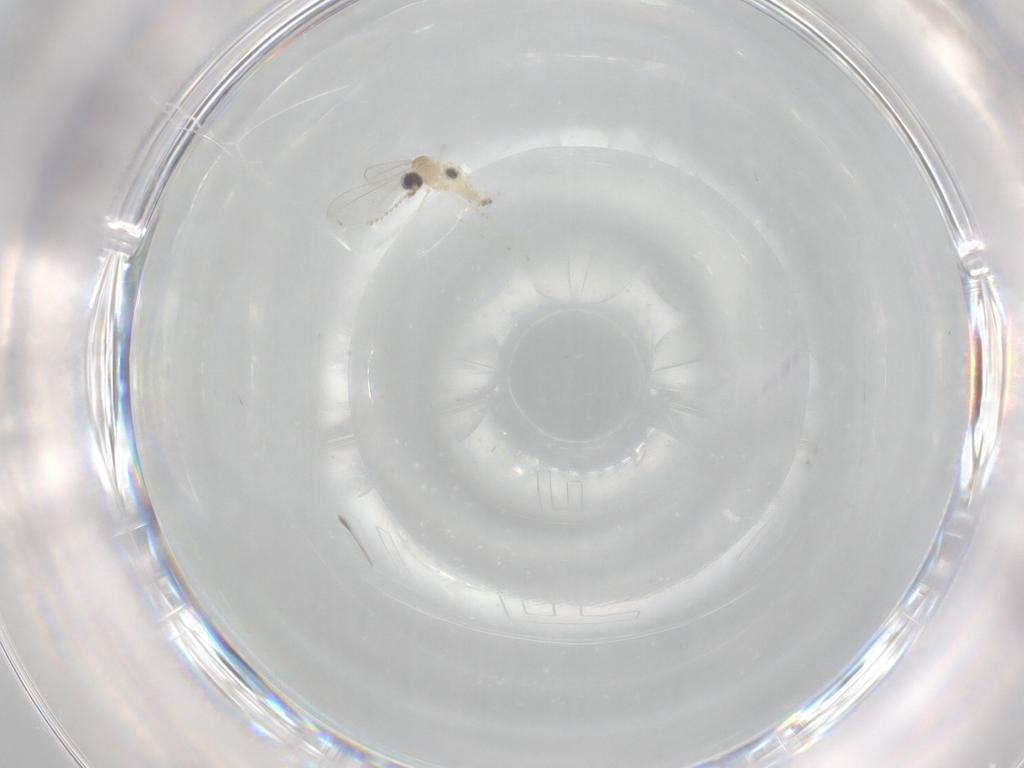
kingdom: Animalia
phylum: Arthropoda
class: Insecta
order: Diptera
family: Cecidomyiidae
